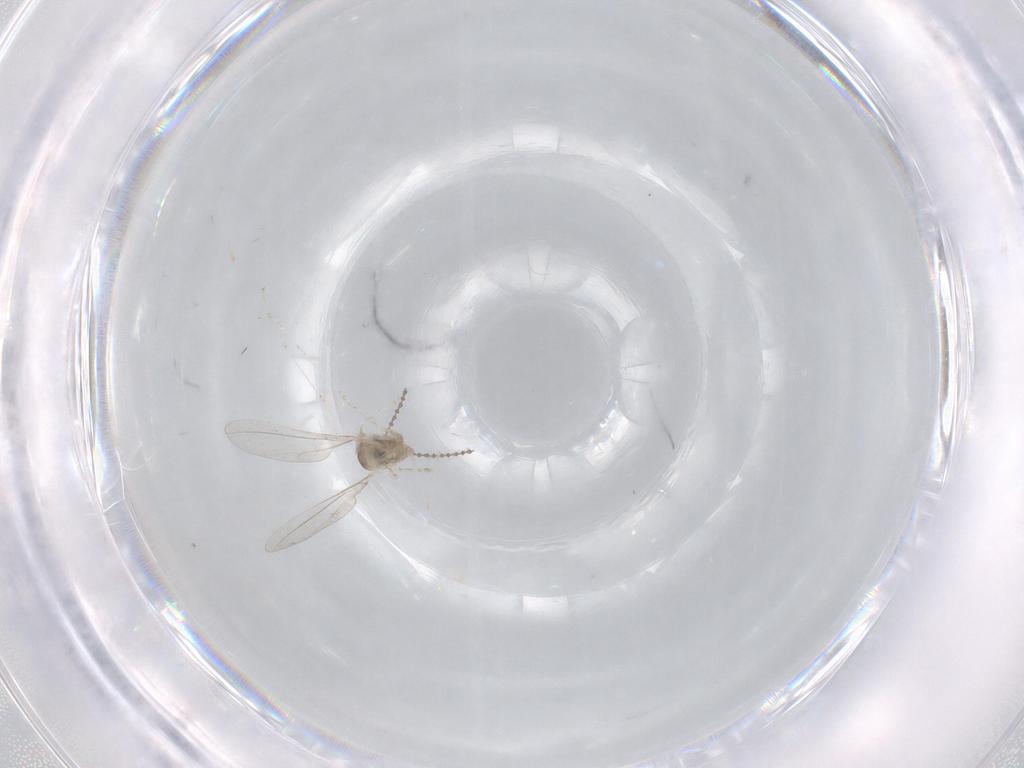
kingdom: Animalia
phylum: Arthropoda
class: Insecta
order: Diptera
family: Cecidomyiidae
